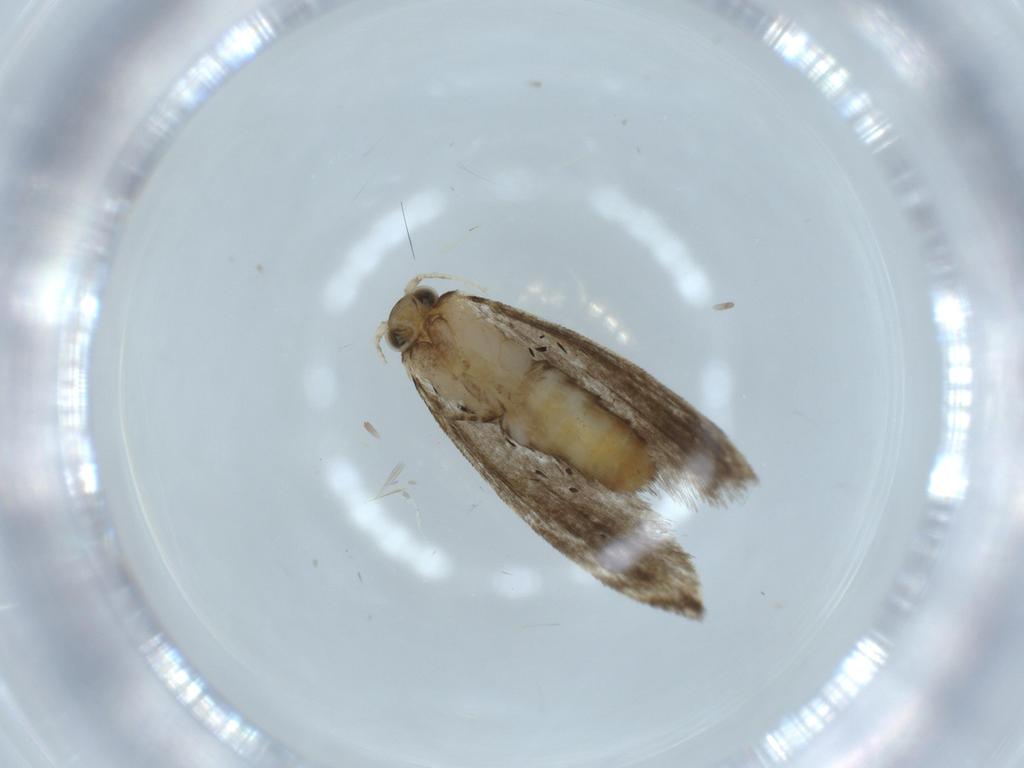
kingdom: Animalia
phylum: Arthropoda
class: Insecta
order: Lepidoptera
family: Tineidae
